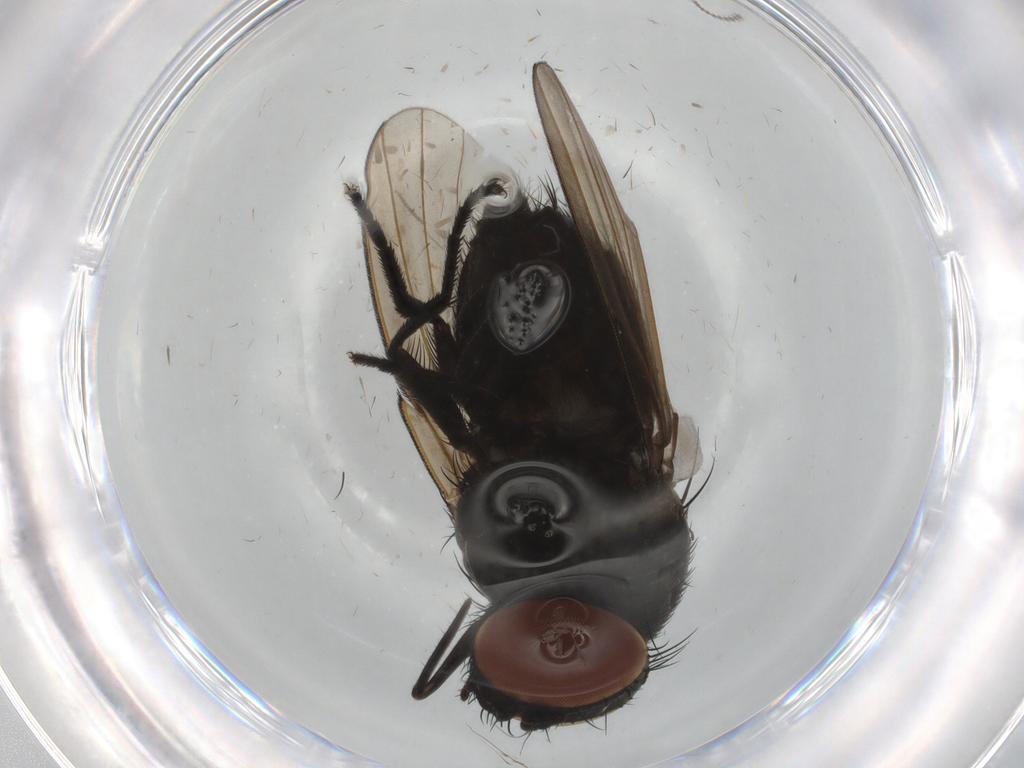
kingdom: Animalia
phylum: Arthropoda
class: Insecta
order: Diptera
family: Milichiidae
